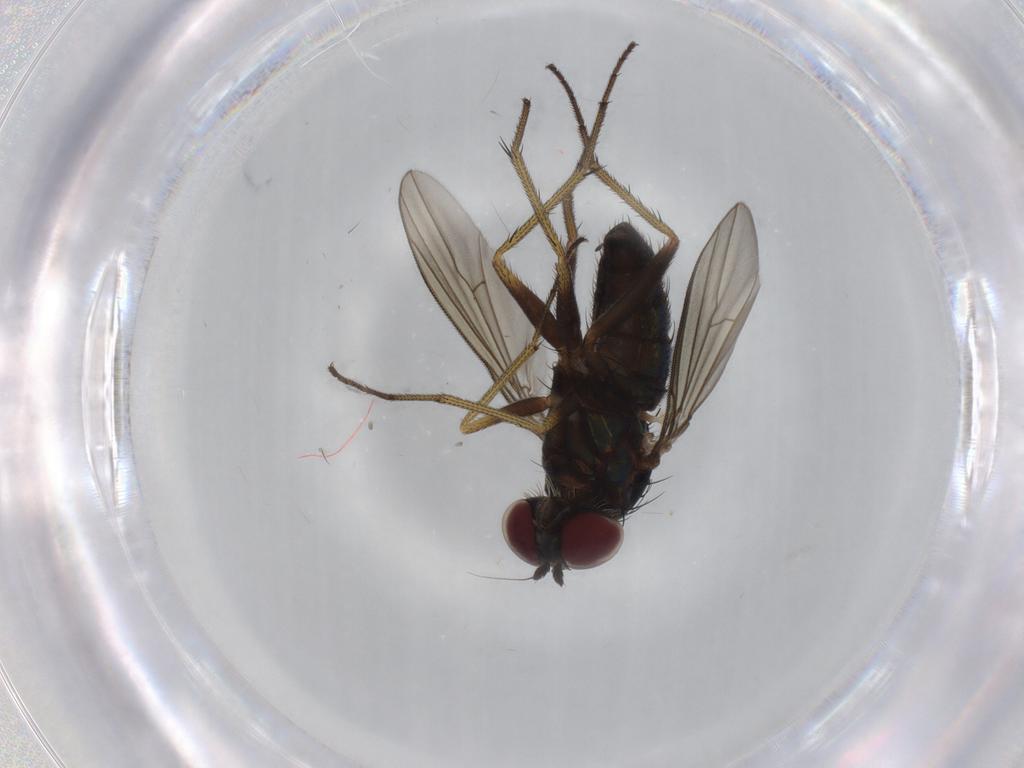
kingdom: Animalia
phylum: Arthropoda
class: Insecta
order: Diptera
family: Dolichopodidae
